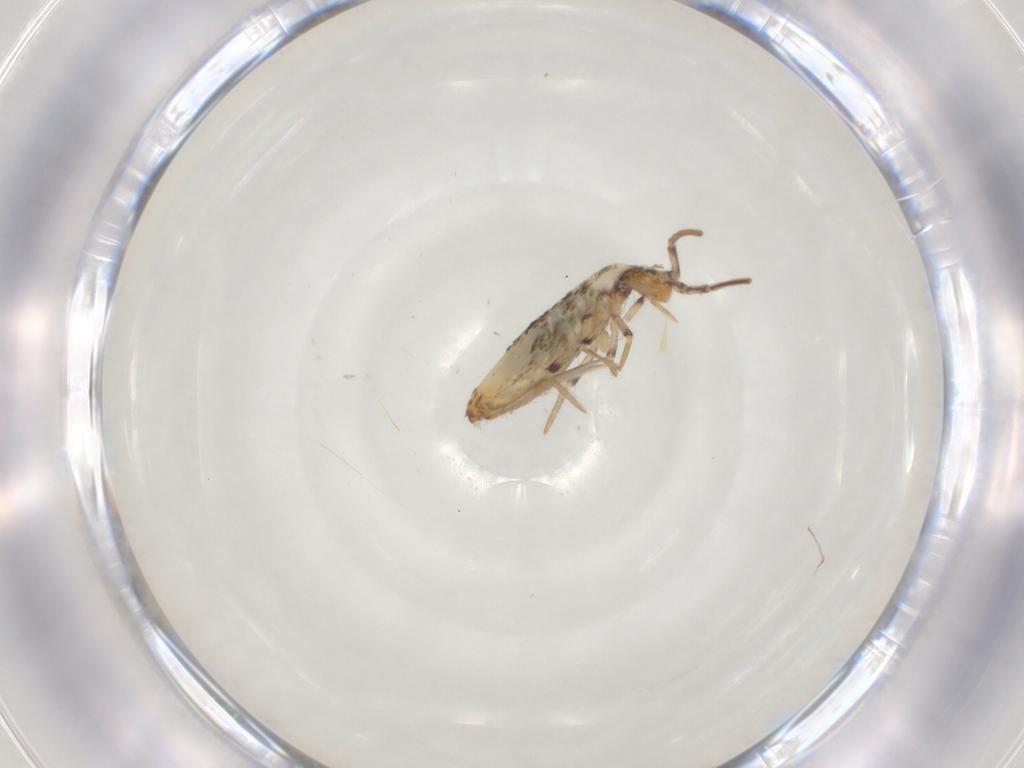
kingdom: Animalia
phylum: Arthropoda
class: Collembola
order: Entomobryomorpha
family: Entomobryidae
